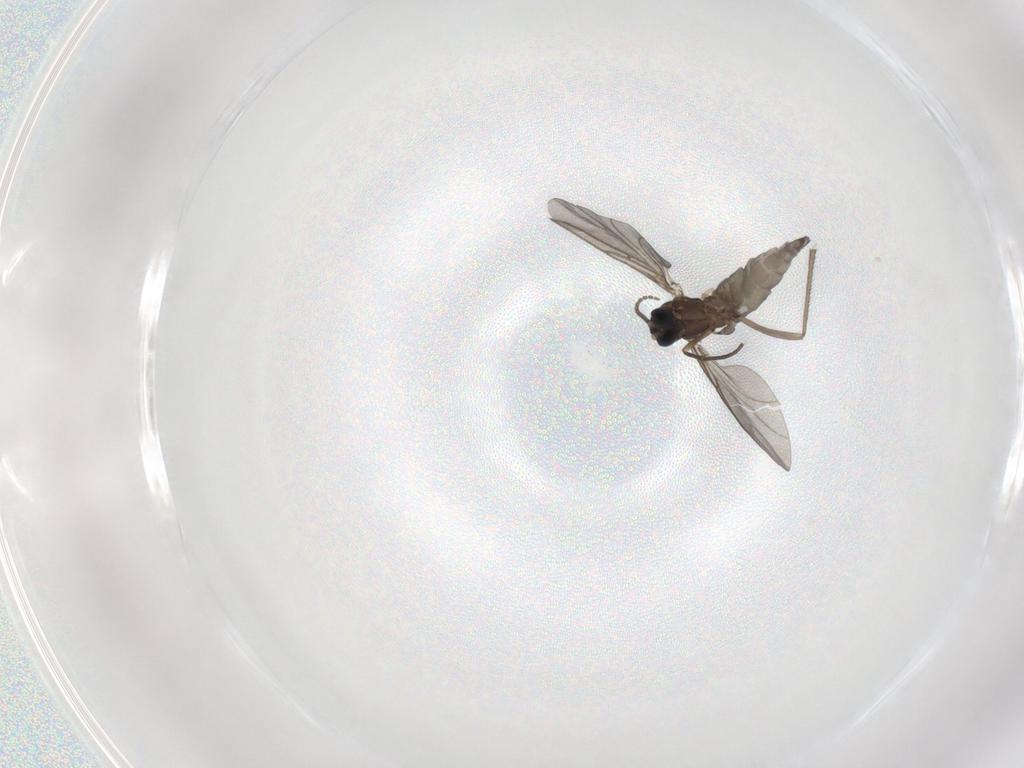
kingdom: Animalia
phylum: Arthropoda
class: Insecta
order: Diptera
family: Sciaridae
